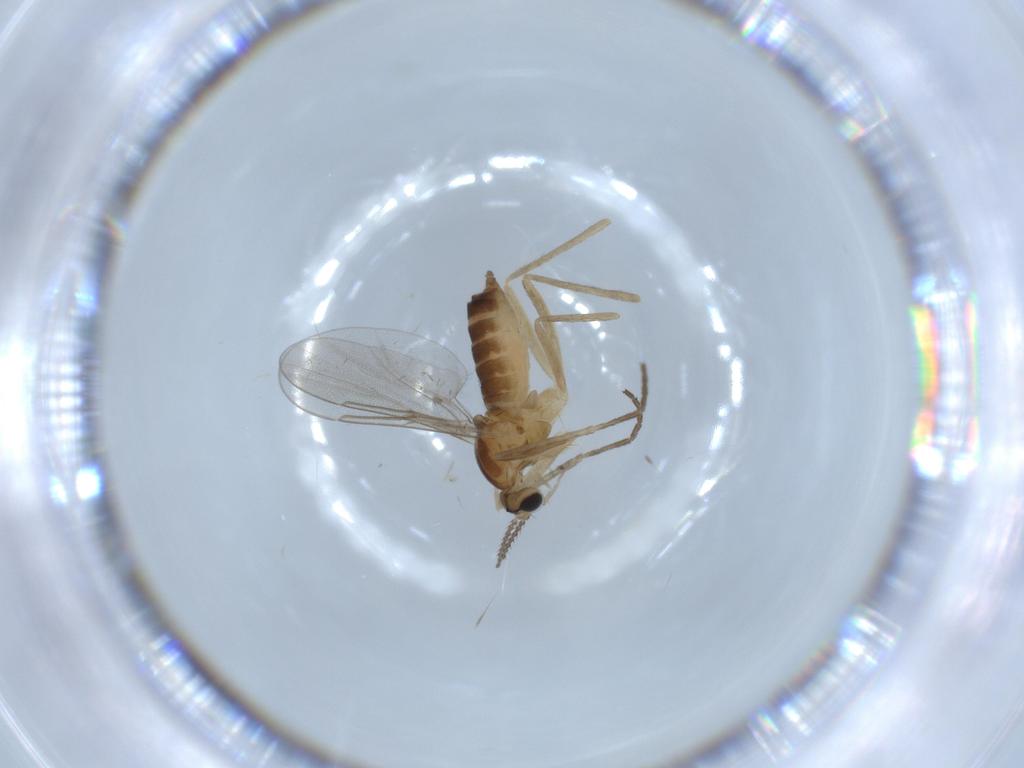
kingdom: Animalia
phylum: Arthropoda
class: Insecta
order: Diptera
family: Cecidomyiidae
